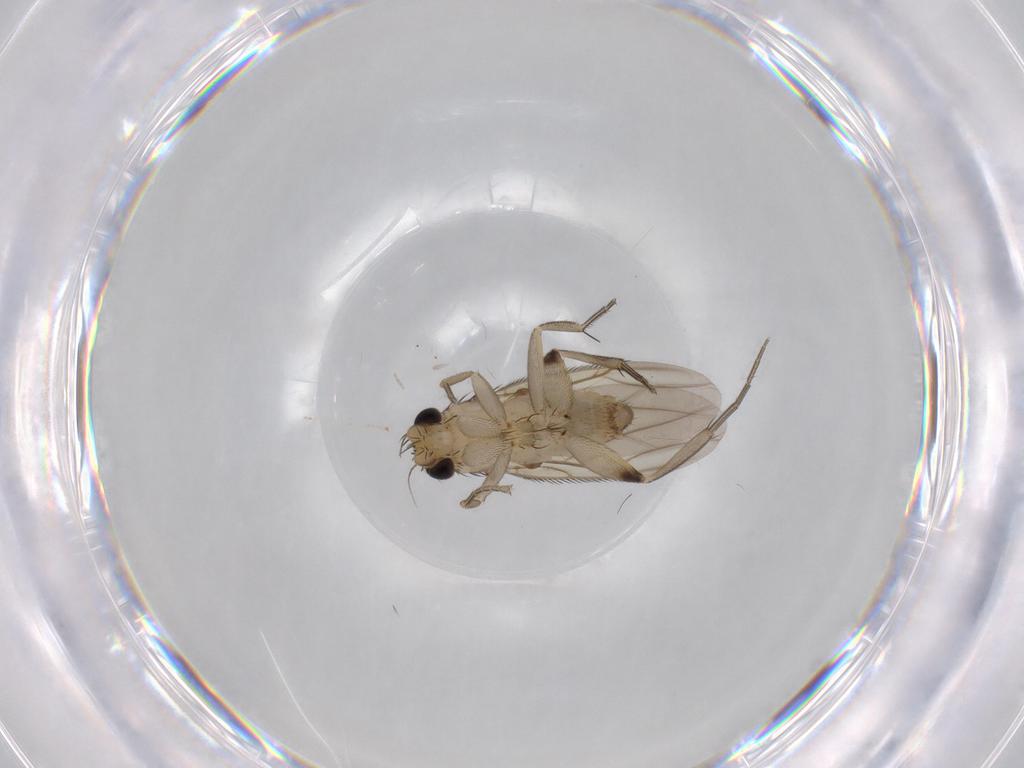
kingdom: Animalia
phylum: Arthropoda
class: Insecta
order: Diptera
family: Phoridae
